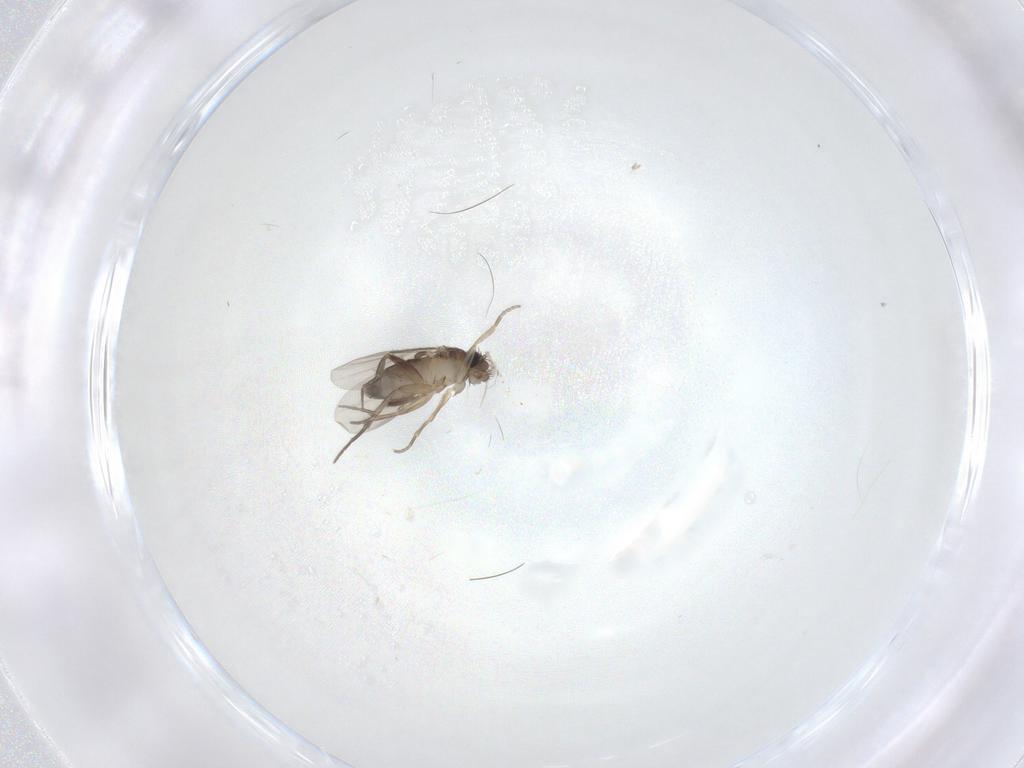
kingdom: Animalia
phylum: Arthropoda
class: Insecta
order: Diptera
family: Phoridae
